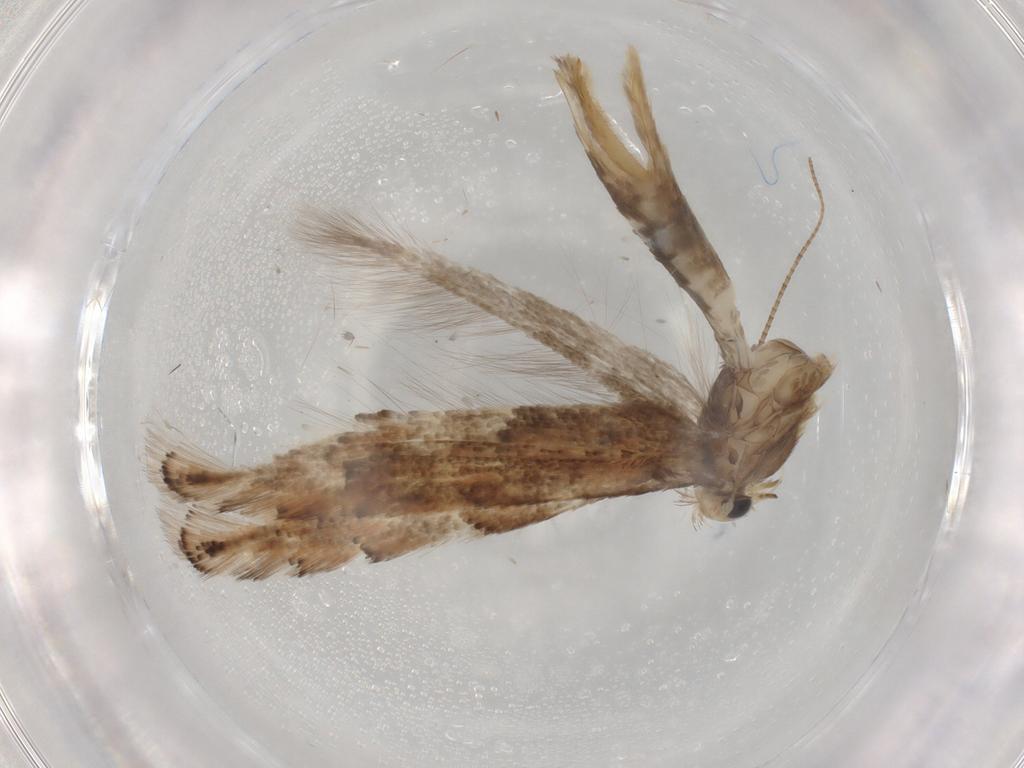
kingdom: Animalia
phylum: Arthropoda
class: Insecta
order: Lepidoptera
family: Gracillariidae
